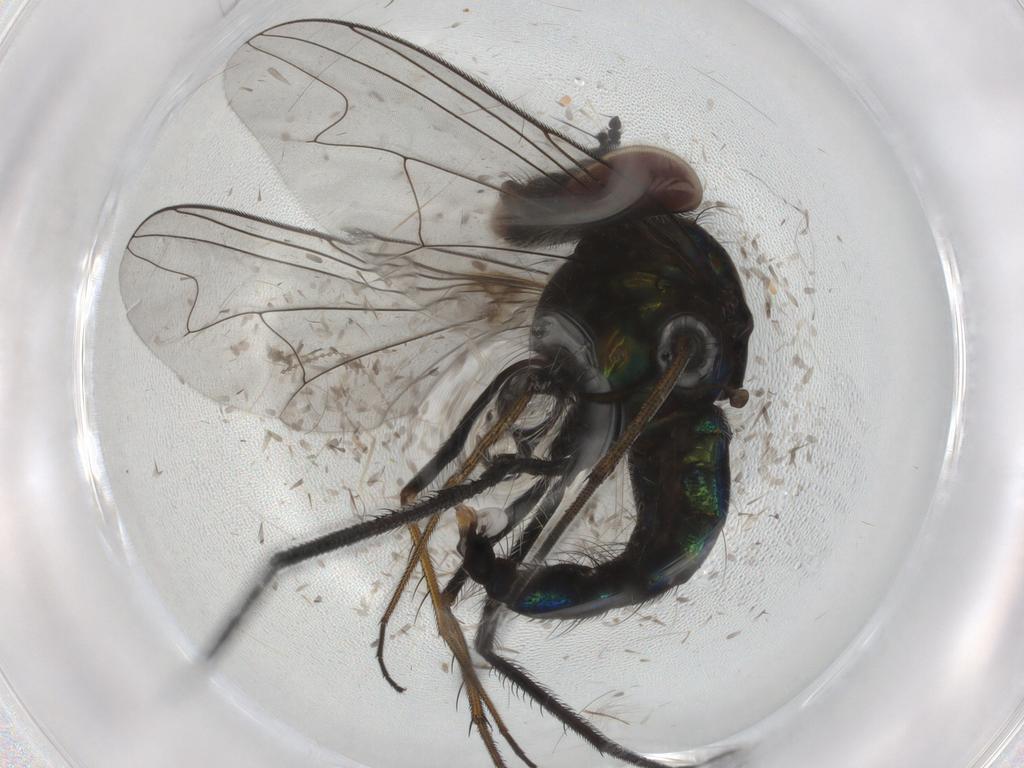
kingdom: Animalia
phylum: Arthropoda
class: Insecta
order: Diptera
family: Dolichopodidae
